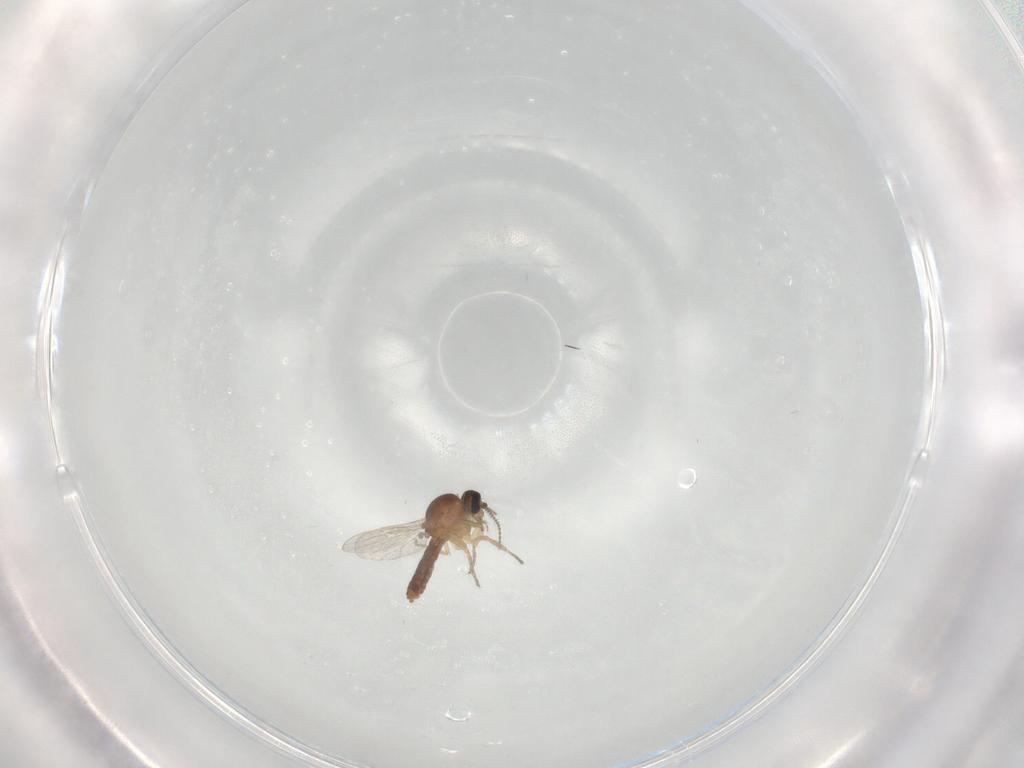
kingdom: Animalia
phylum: Arthropoda
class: Insecta
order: Diptera
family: Ceratopogonidae
